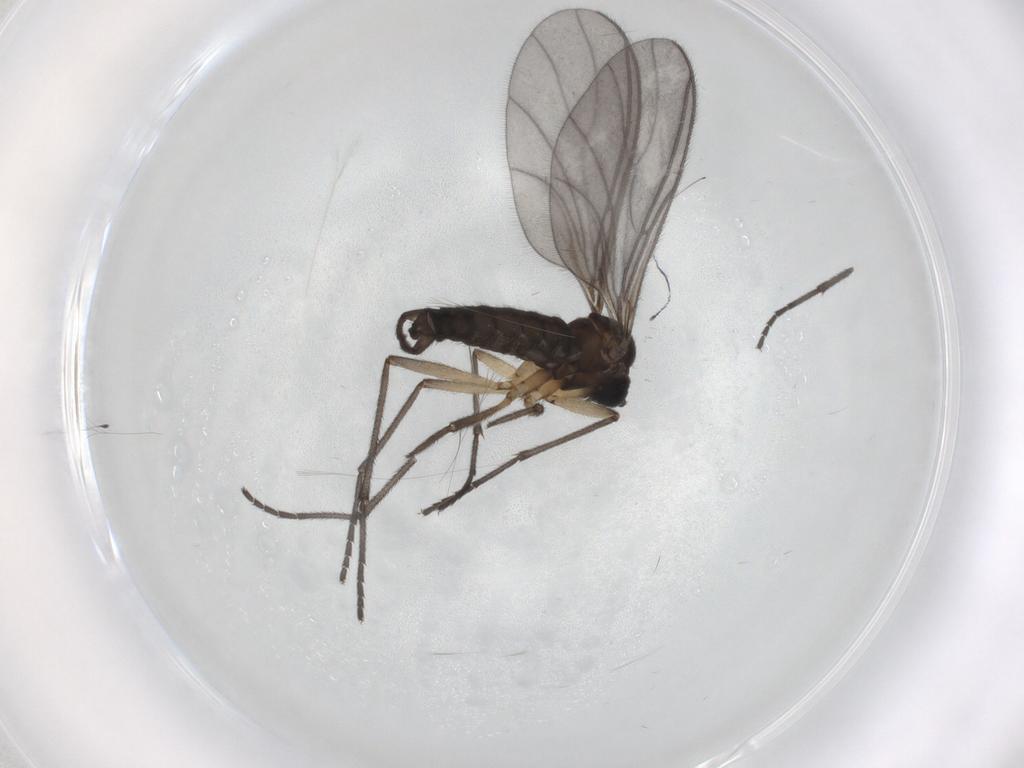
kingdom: Animalia
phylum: Arthropoda
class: Insecta
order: Diptera
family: Sciaridae
